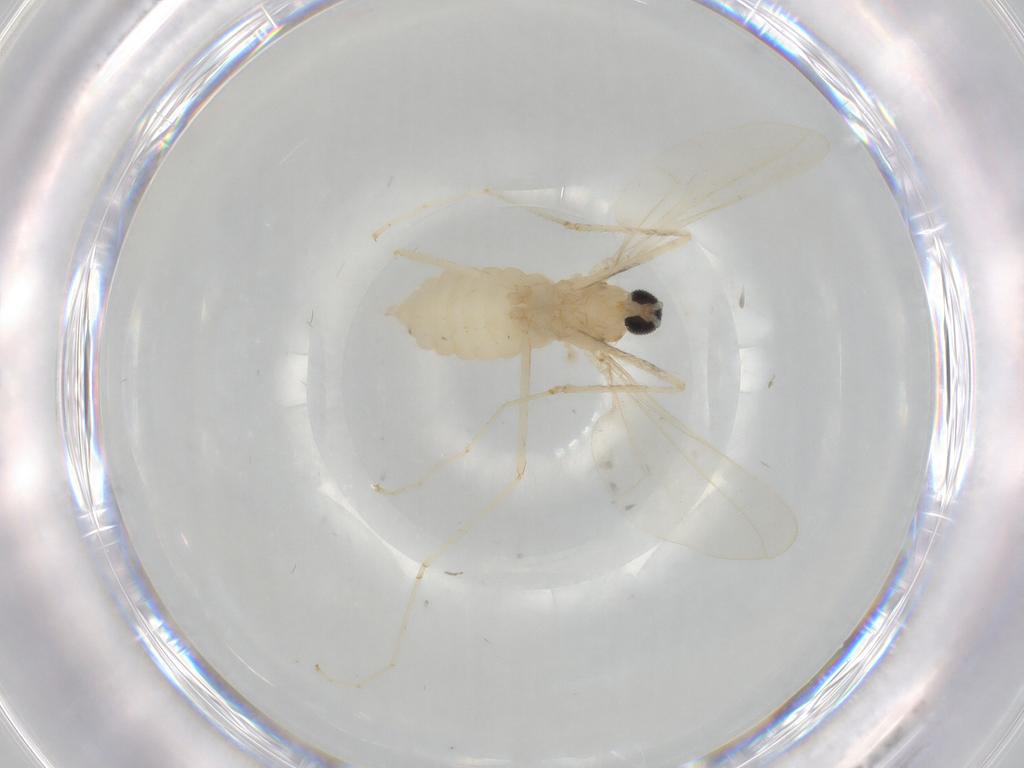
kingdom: Animalia
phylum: Arthropoda
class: Insecta
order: Diptera
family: Cecidomyiidae
